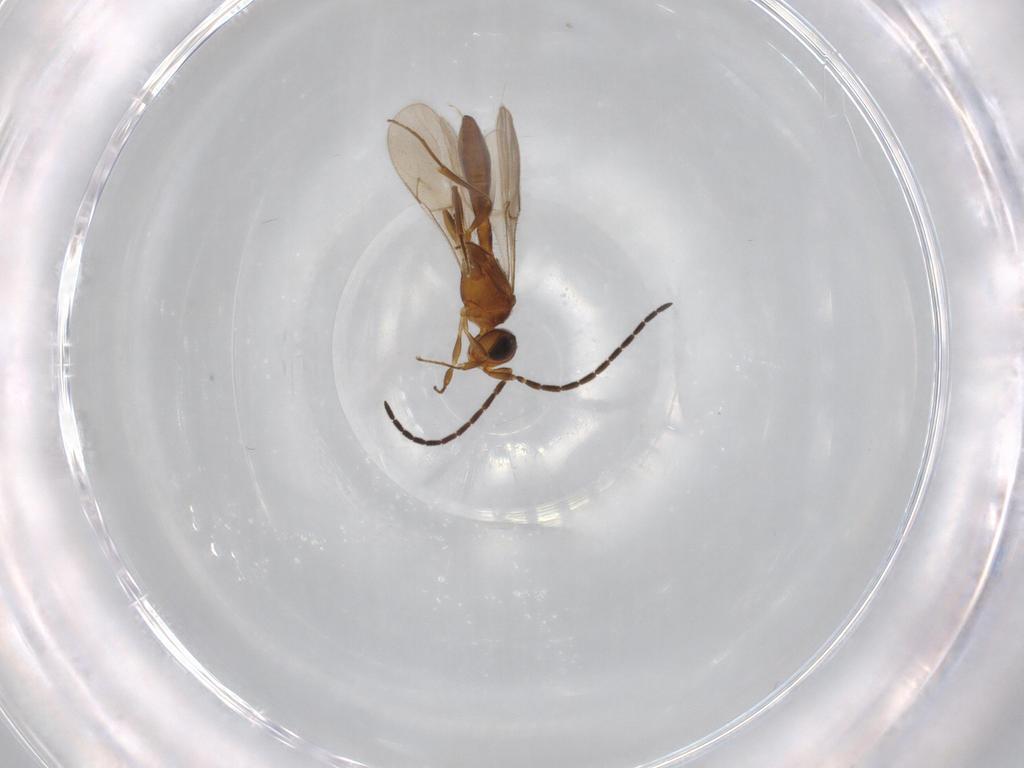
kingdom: Animalia
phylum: Arthropoda
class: Insecta
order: Hymenoptera
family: Scelionidae
